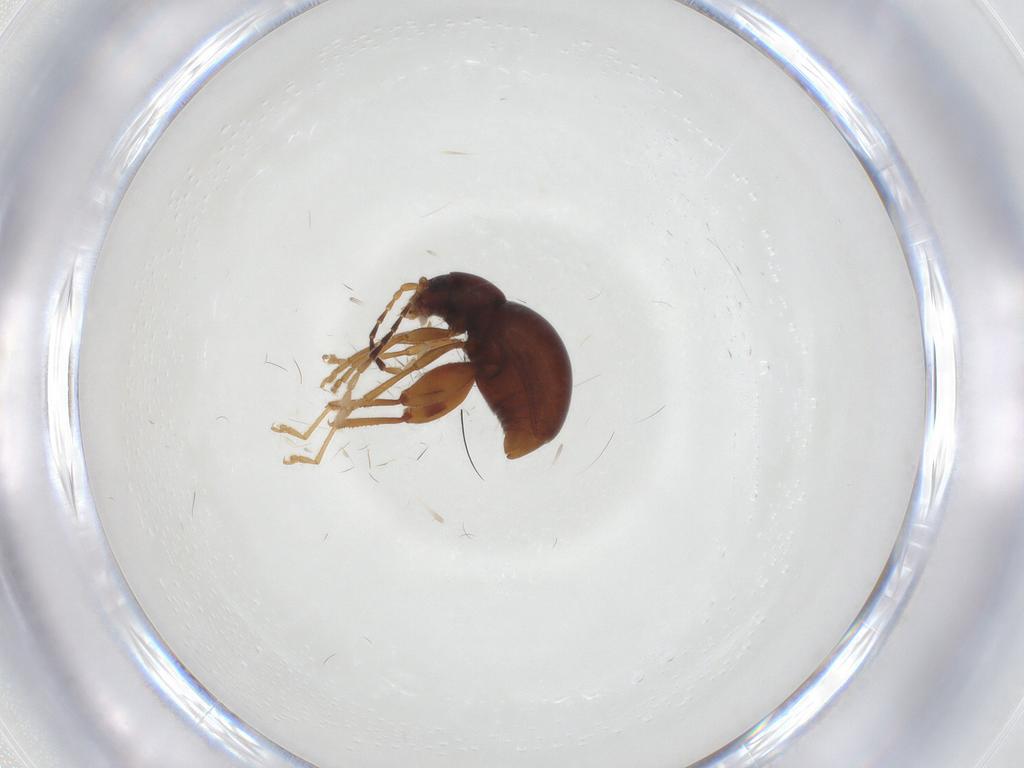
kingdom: Animalia
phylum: Arthropoda
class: Insecta
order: Coleoptera
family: Chrysomelidae
